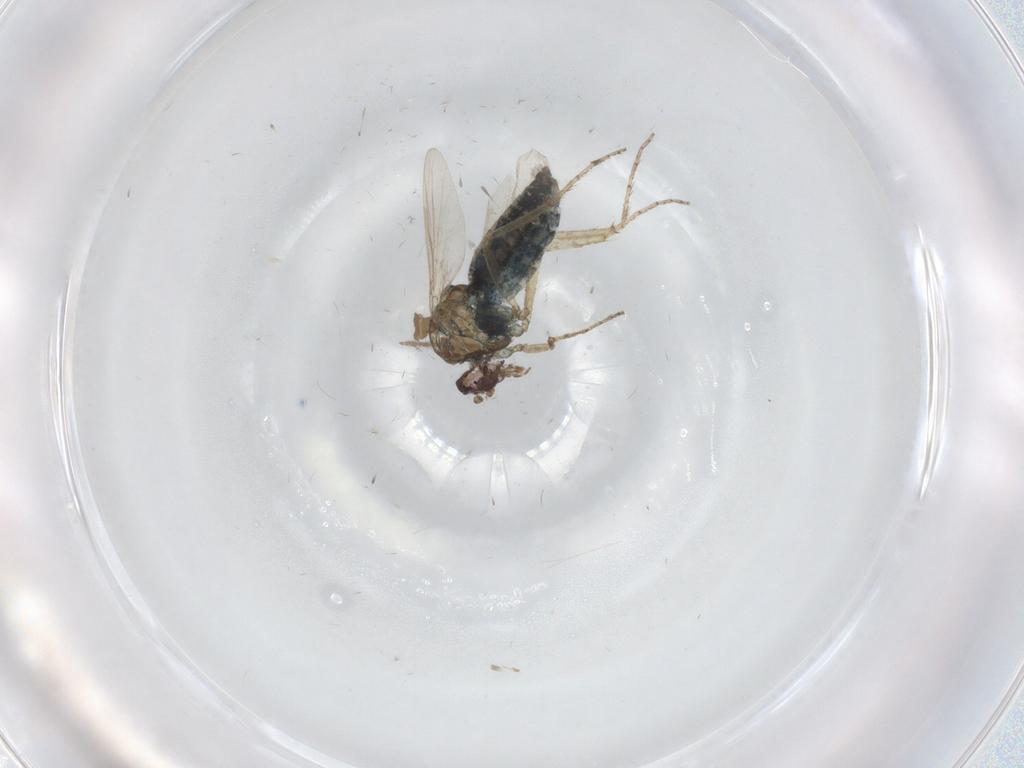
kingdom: Animalia
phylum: Arthropoda
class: Insecta
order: Diptera
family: Ceratopogonidae
